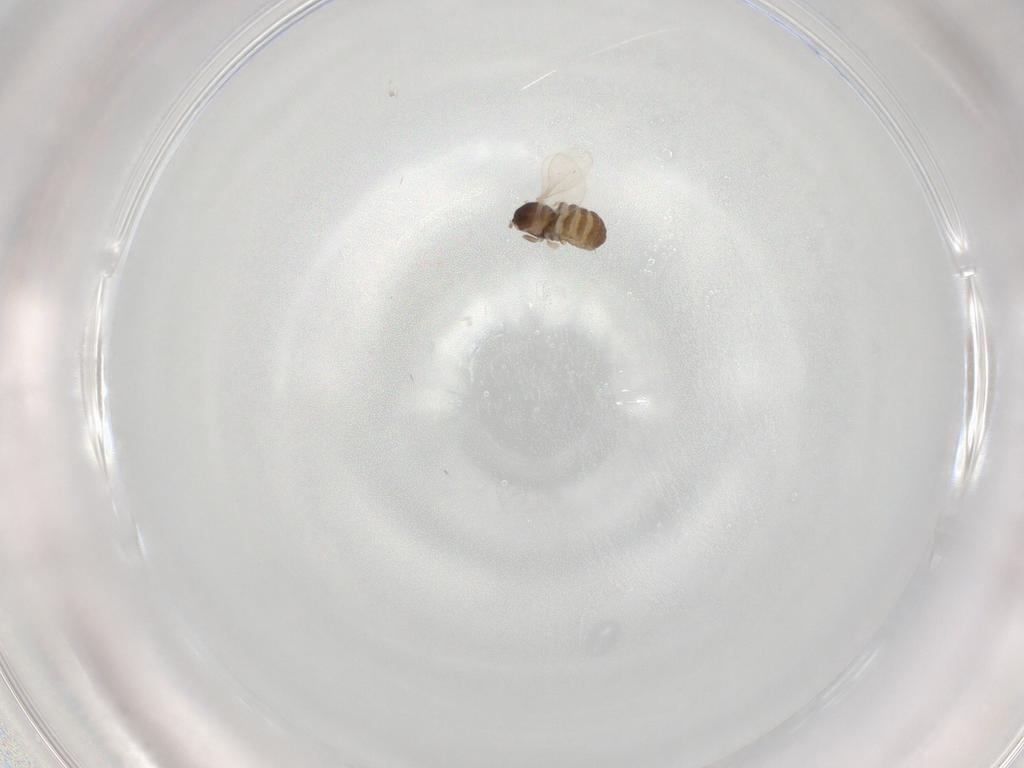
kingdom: Animalia
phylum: Arthropoda
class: Insecta
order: Diptera
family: Cecidomyiidae
